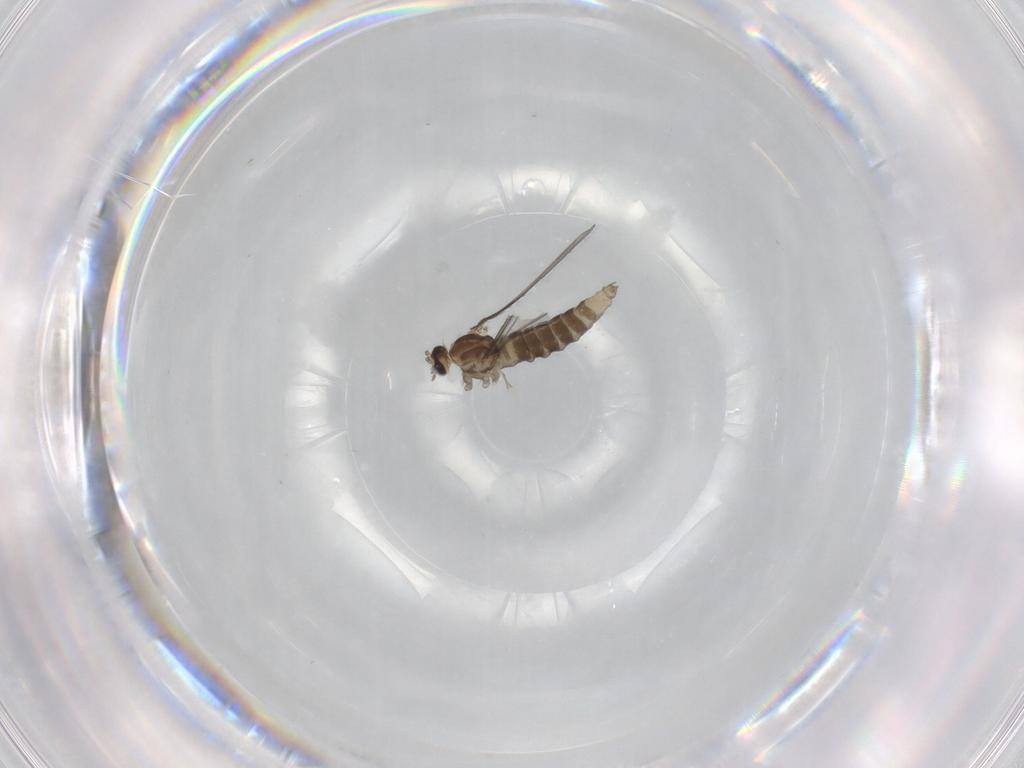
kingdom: Animalia
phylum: Arthropoda
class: Insecta
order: Diptera
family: Cecidomyiidae
